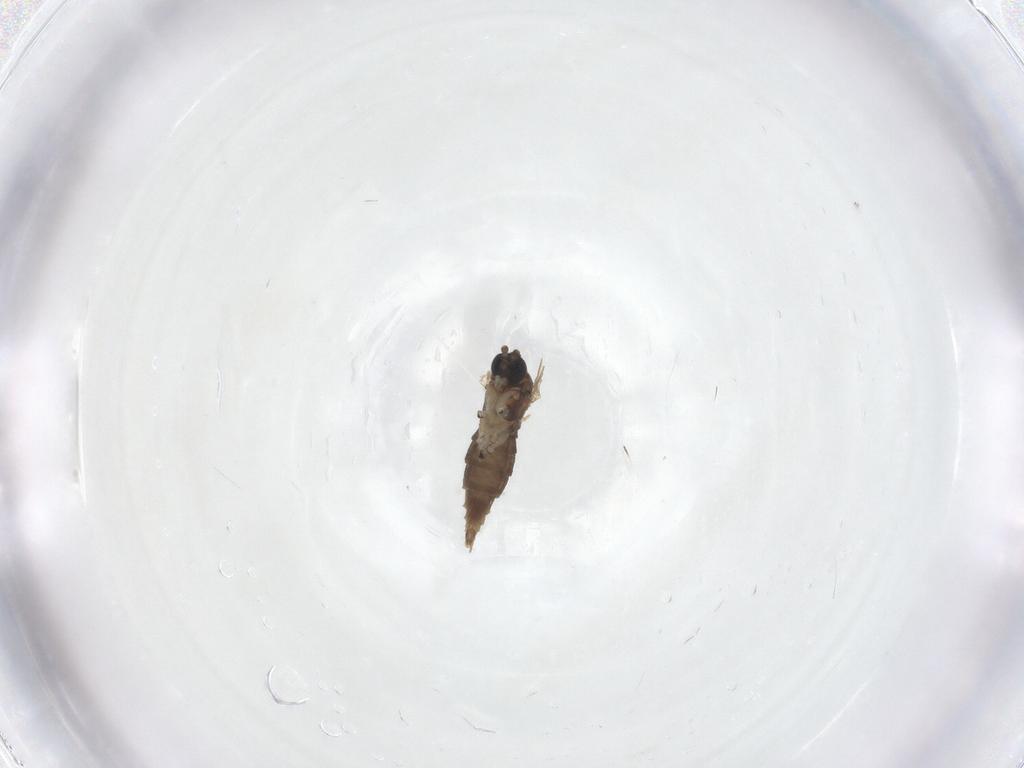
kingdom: Animalia
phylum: Arthropoda
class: Insecta
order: Diptera
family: Sciaridae
